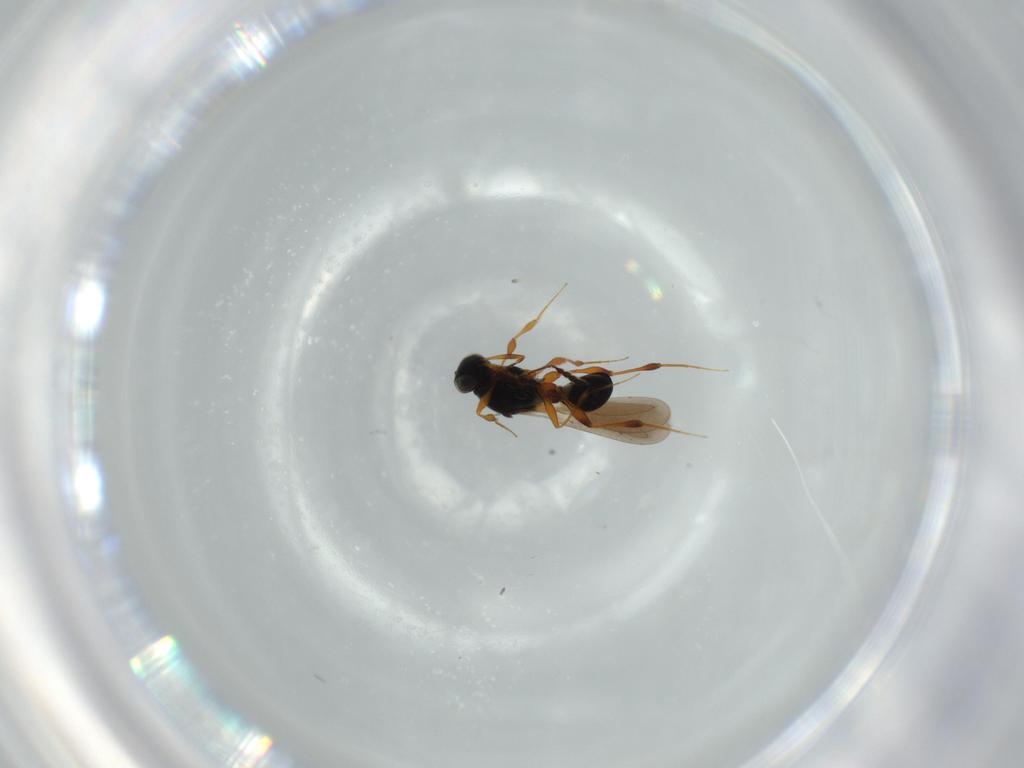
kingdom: Animalia
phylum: Arthropoda
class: Insecta
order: Hymenoptera
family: Platygastridae
